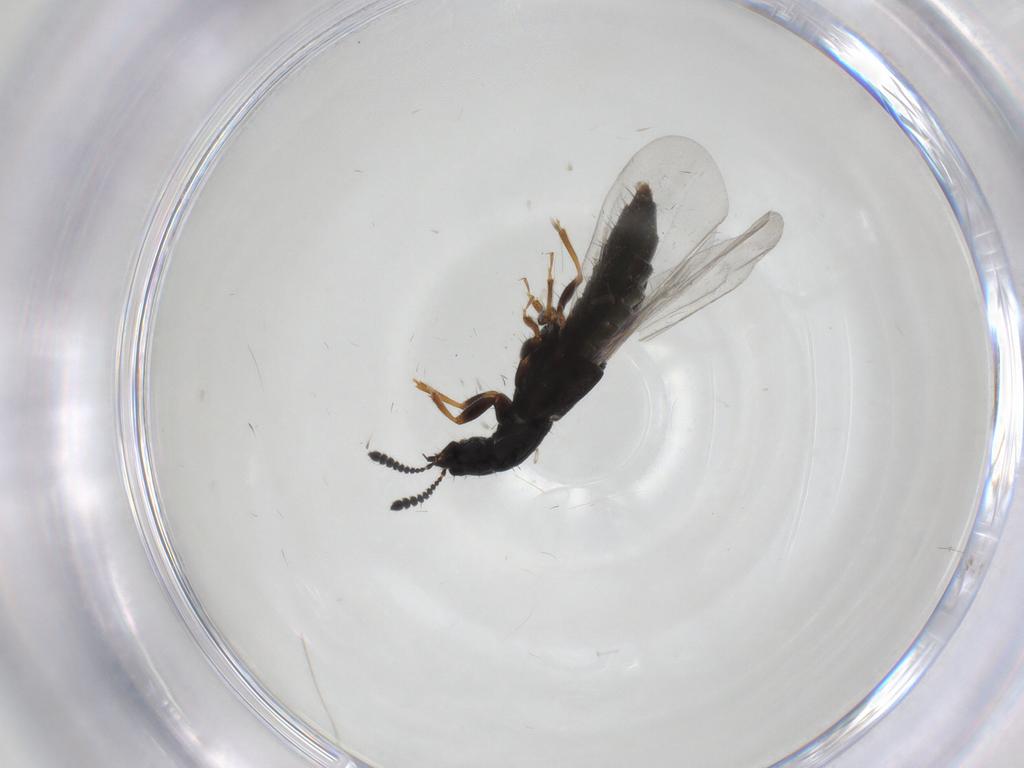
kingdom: Animalia
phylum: Arthropoda
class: Insecta
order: Coleoptera
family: Staphylinidae
